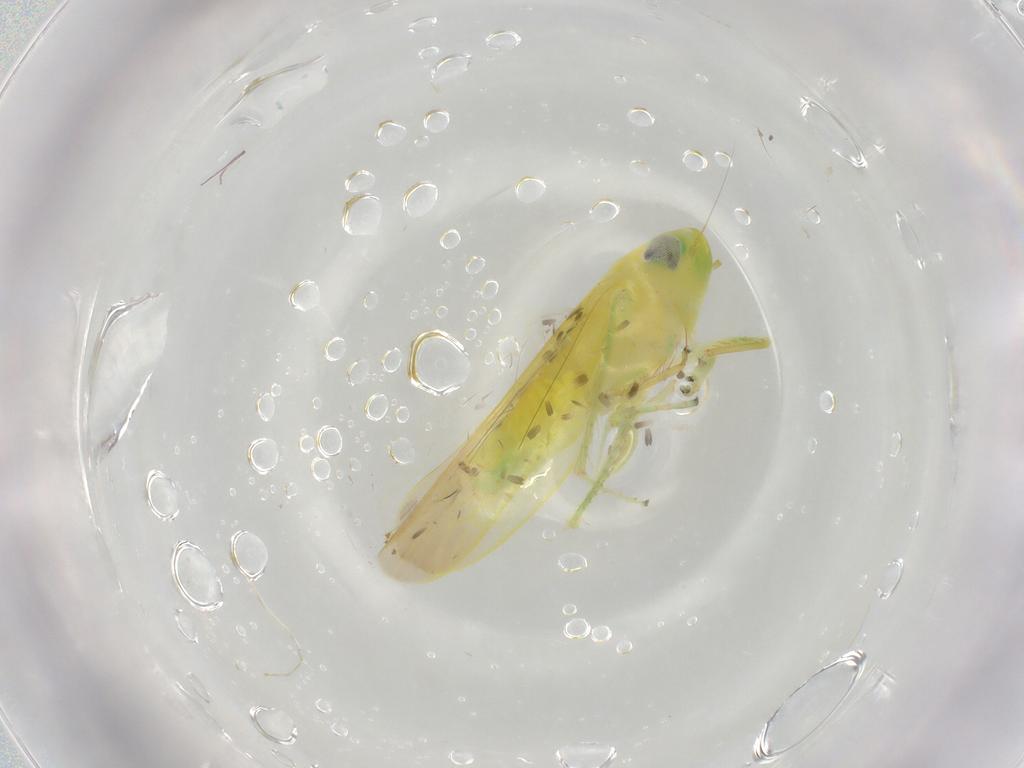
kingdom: Animalia
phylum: Arthropoda
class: Insecta
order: Hemiptera
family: Cicadellidae
